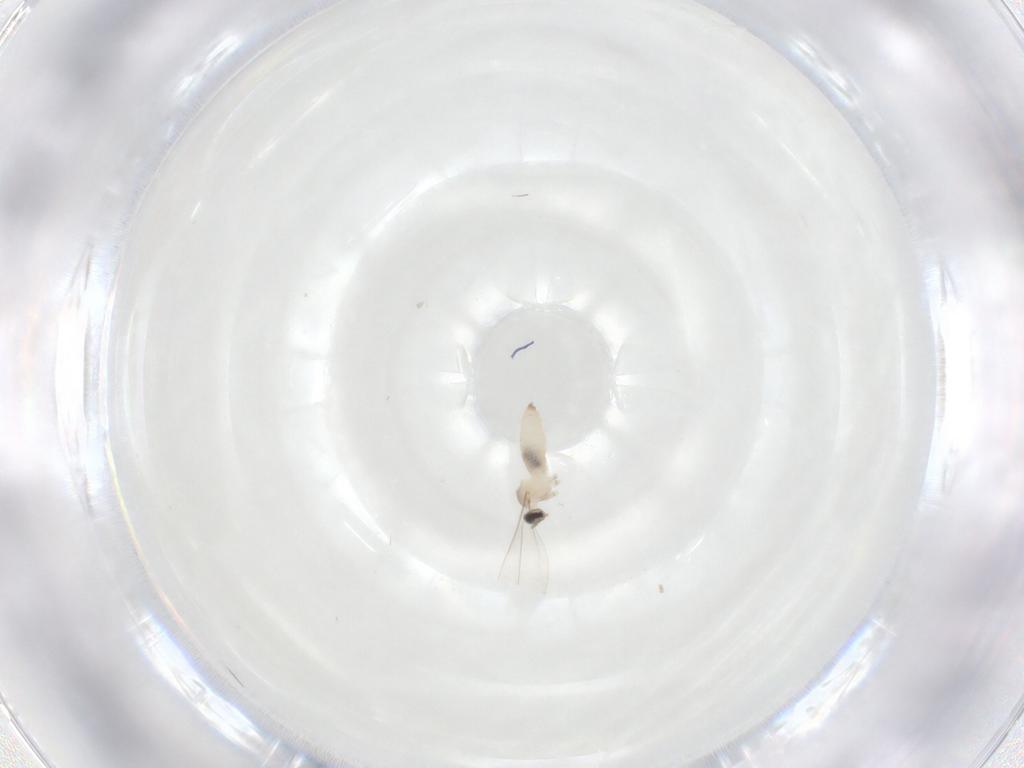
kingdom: Animalia
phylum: Arthropoda
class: Insecta
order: Diptera
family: Cecidomyiidae
